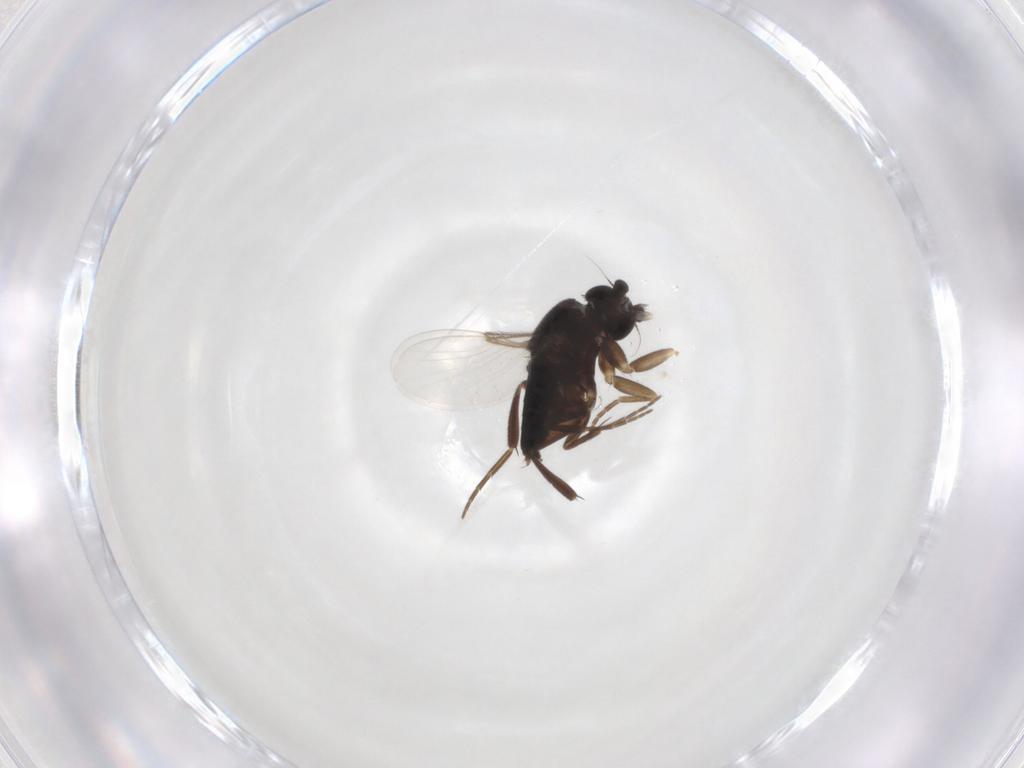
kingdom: Animalia
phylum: Arthropoda
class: Insecta
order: Diptera
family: Phoridae
